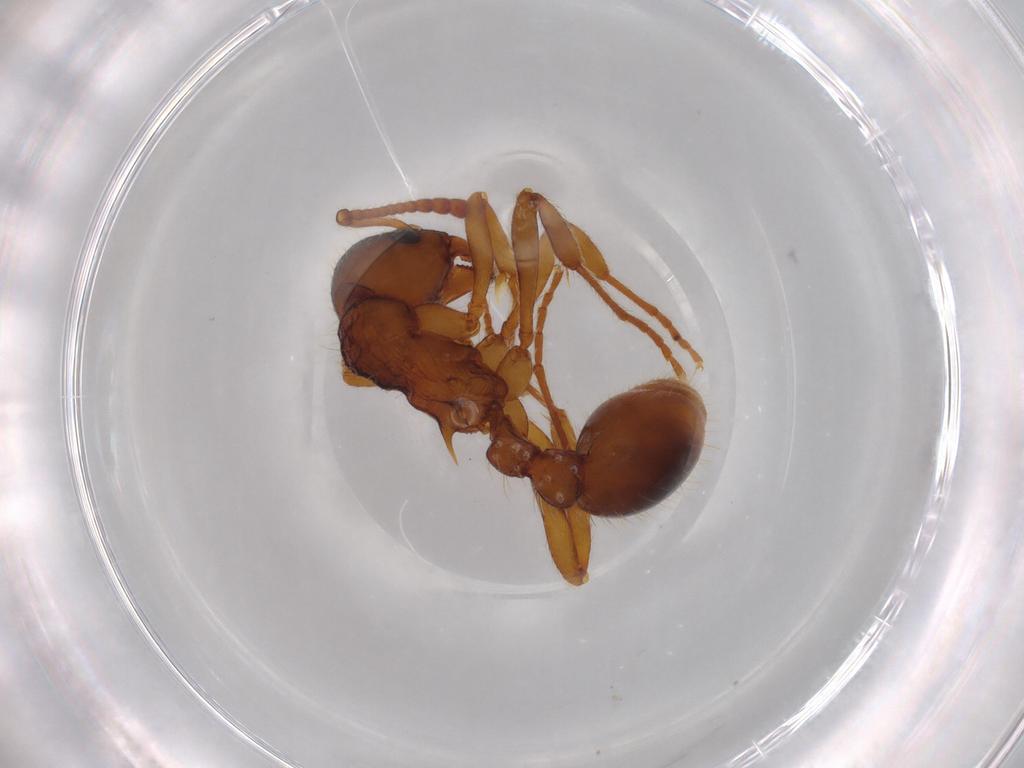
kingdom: Animalia
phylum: Arthropoda
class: Insecta
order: Hymenoptera
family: Formicidae
